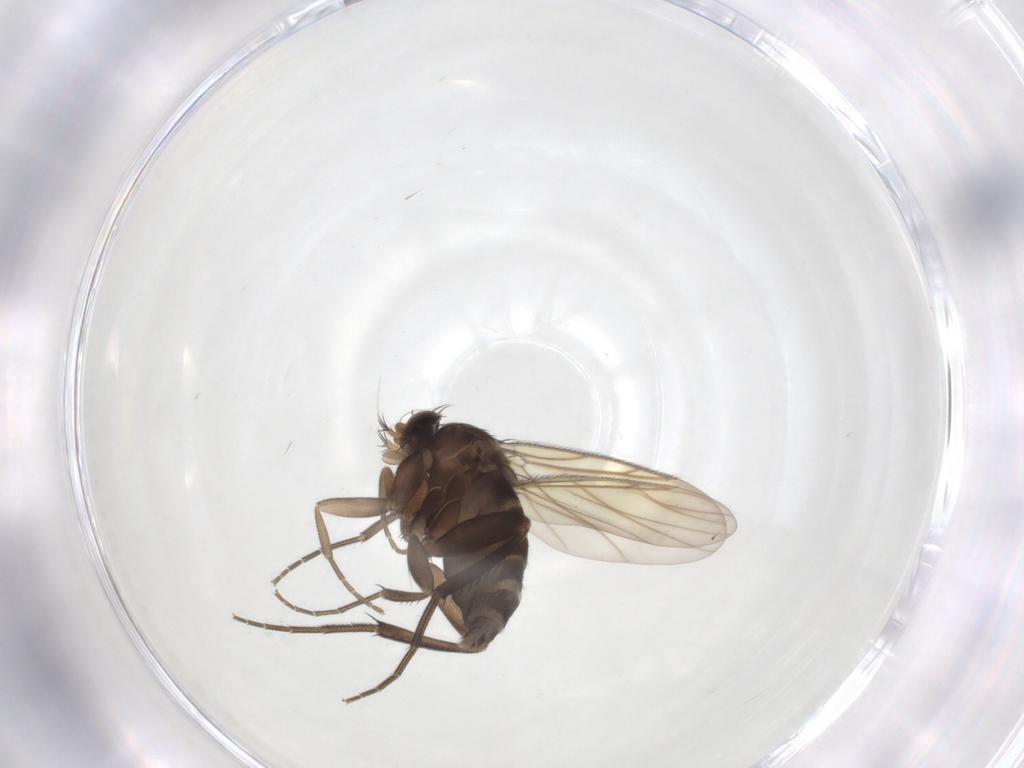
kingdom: Animalia
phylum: Arthropoda
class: Insecta
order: Diptera
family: Phoridae
